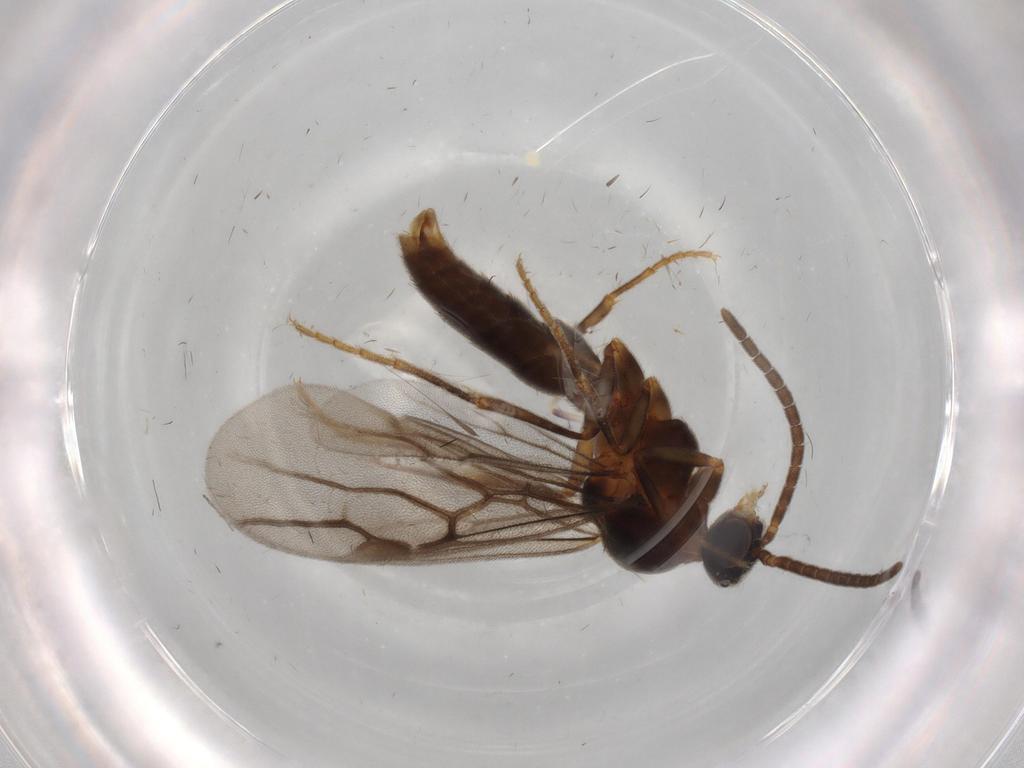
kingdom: Animalia
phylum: Arthropoda
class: Insecta
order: Hymenoptera
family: Formicidae
